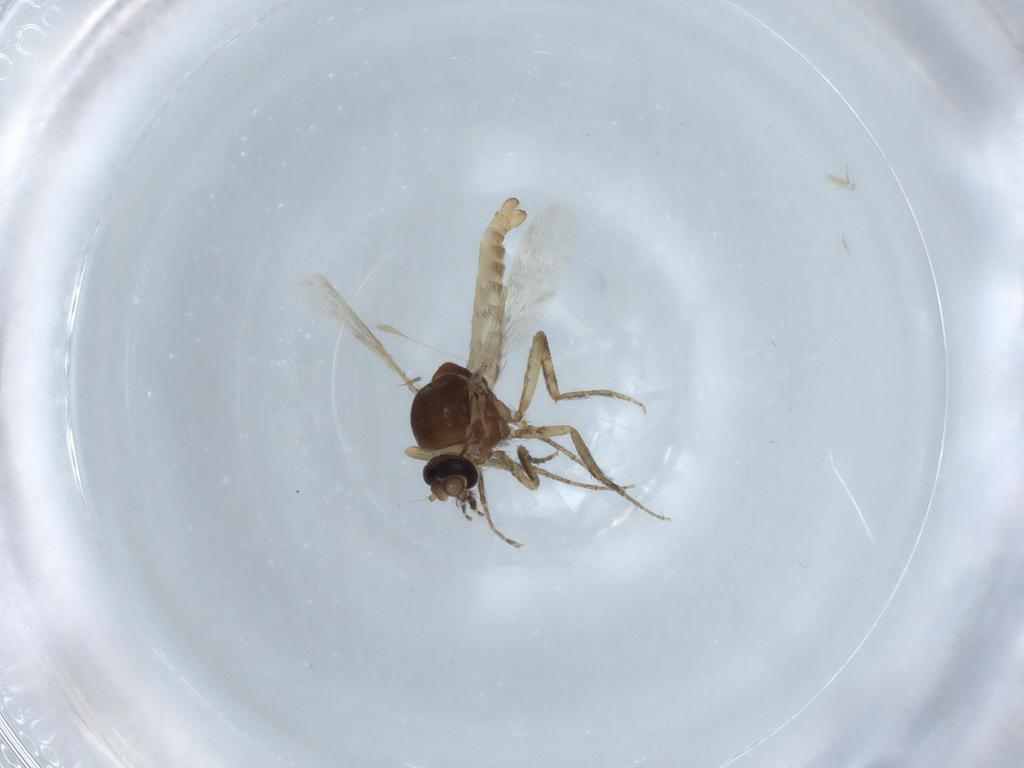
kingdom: Animalia
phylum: Arthropoda
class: Insecta
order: Diptera
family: Ceratopogonidae
